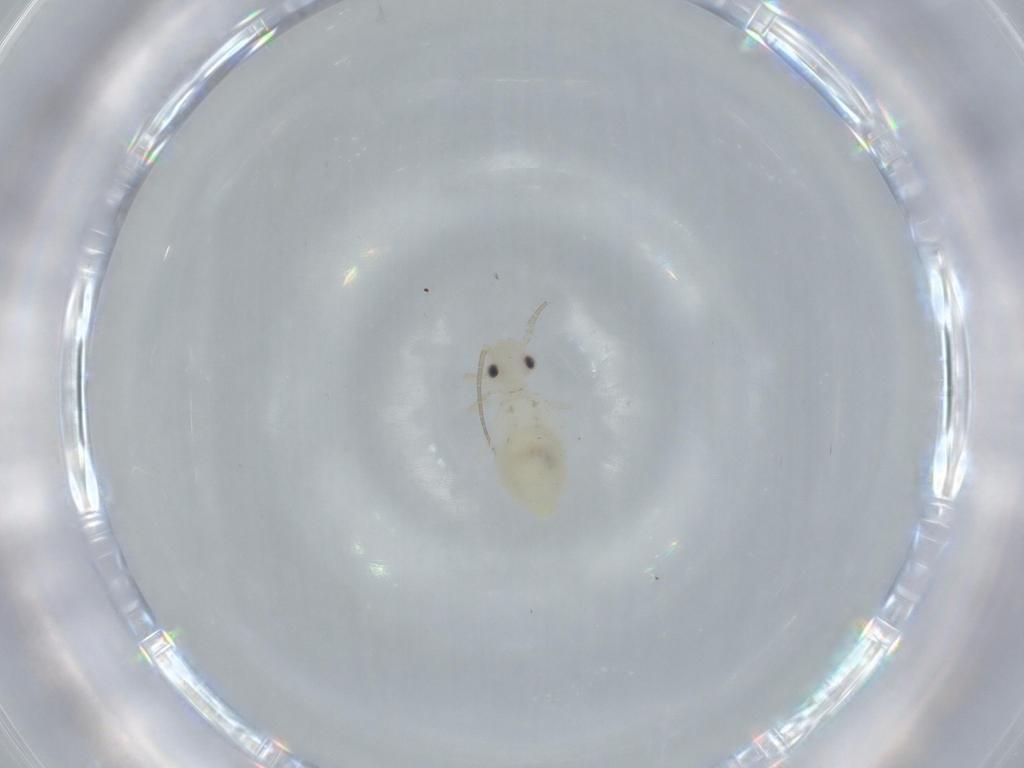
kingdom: Animalia
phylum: Arthropoda
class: Insecta
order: Psocodea
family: Caeciliusidae
